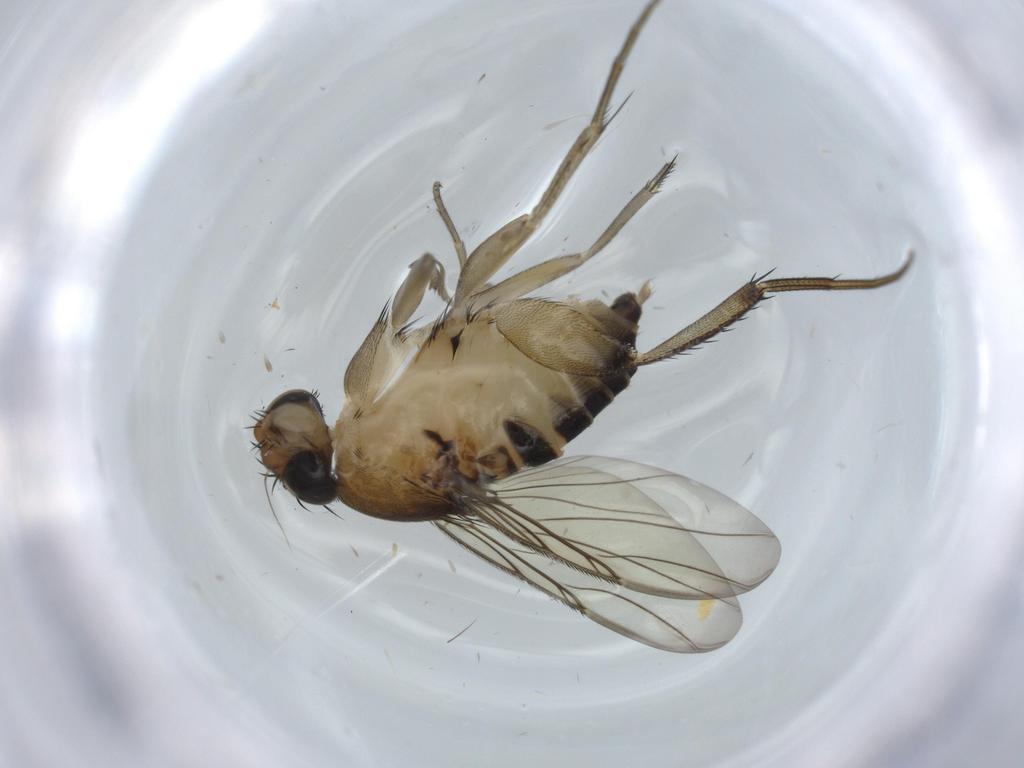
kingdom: Animalia
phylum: Arthropoda
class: Insecta
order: Diptera
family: Phoridae
